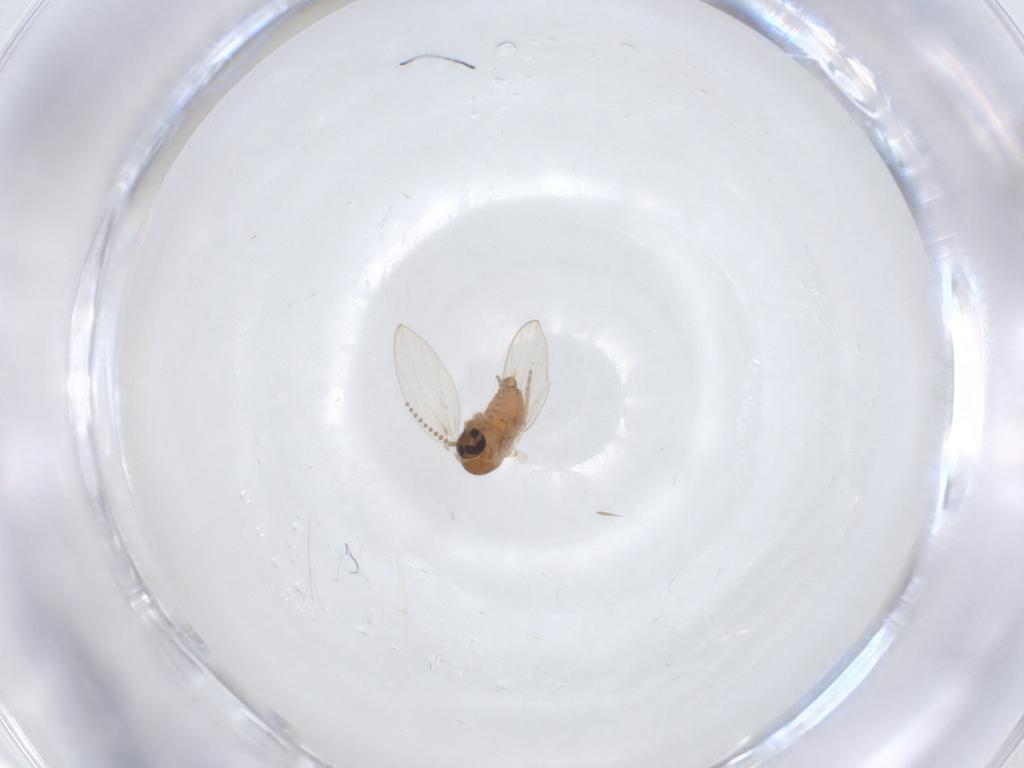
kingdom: Animalia
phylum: Arthropoda
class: Insecta
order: Diptera
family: Psychodidae
